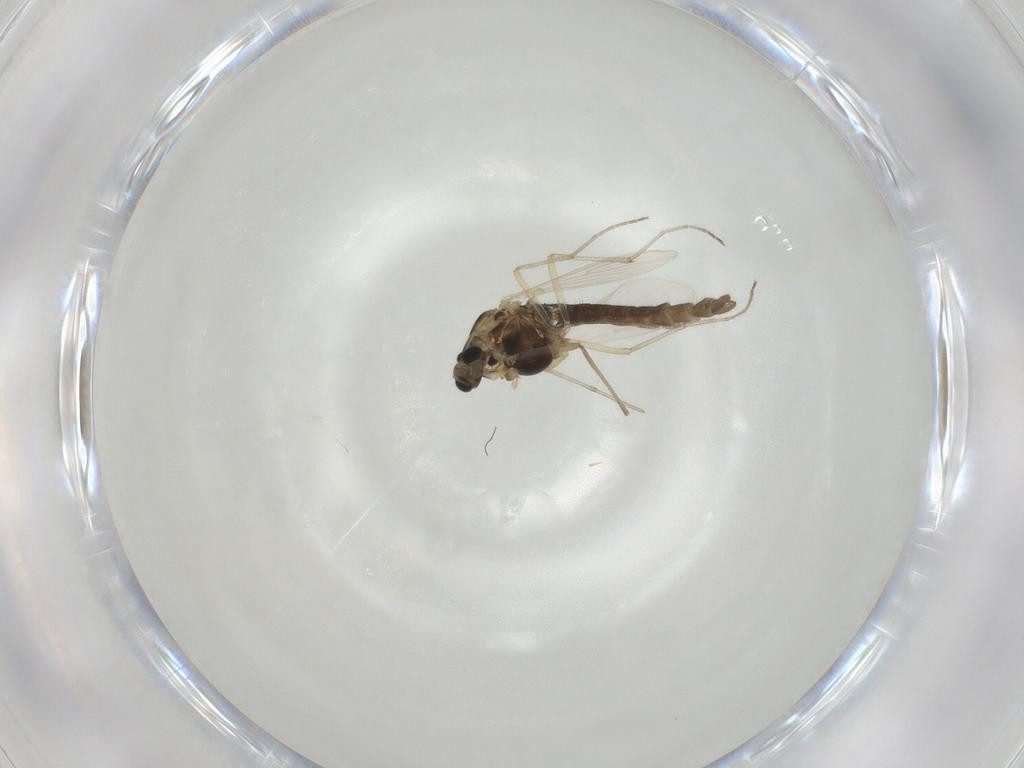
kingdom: Animalia
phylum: Arthropoda
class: Insecta
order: Diptera
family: Chironomidae
